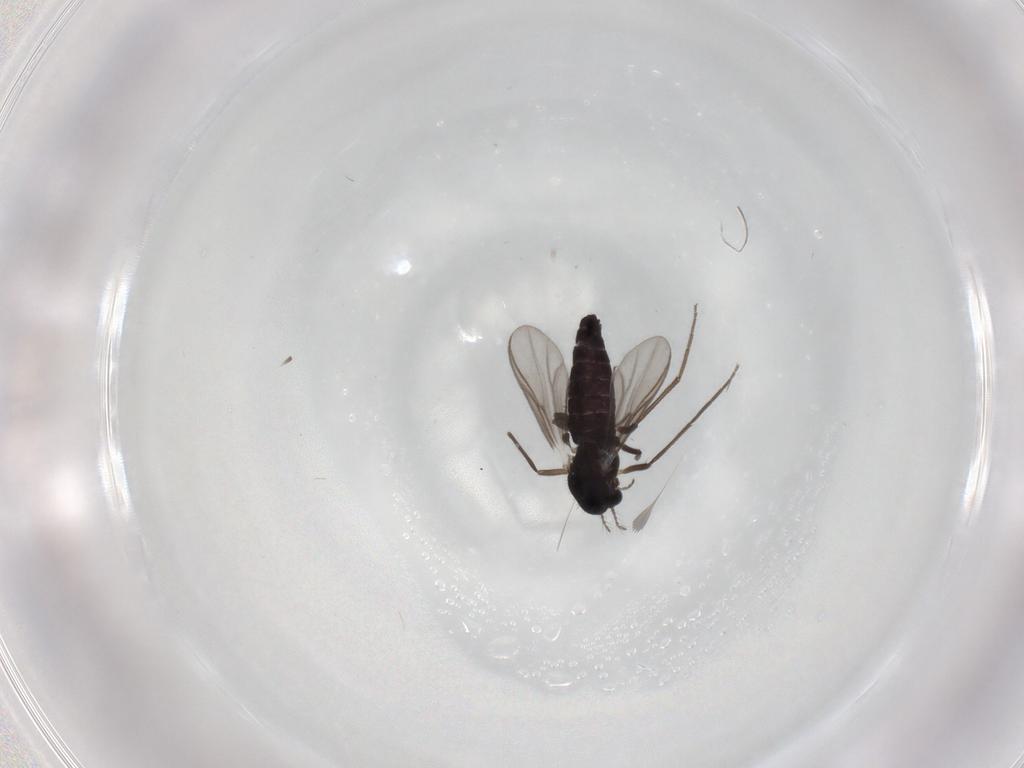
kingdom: Animalia
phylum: Arthropoda
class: Insecta
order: Diptera
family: Chironomidae
